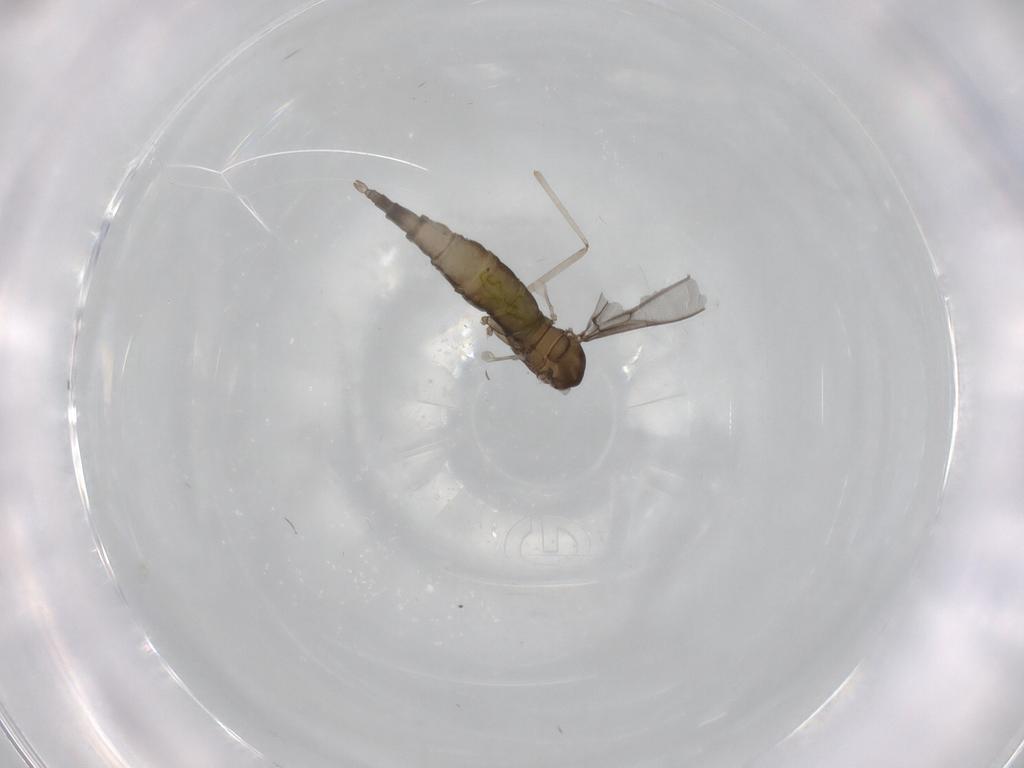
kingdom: Animalia
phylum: Arthropoda
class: Insecta
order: Diptera
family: Cecidomyiidae
